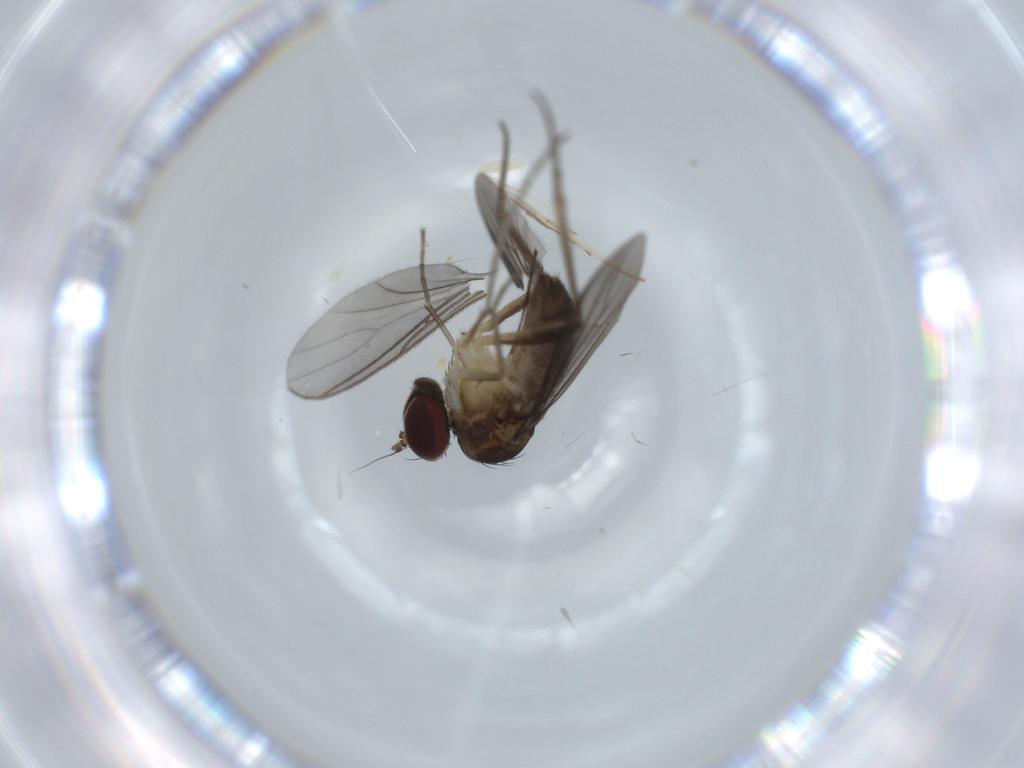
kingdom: Animalia
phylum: Arthropoda
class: Insecta
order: Diptera
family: Dolichopodidae
